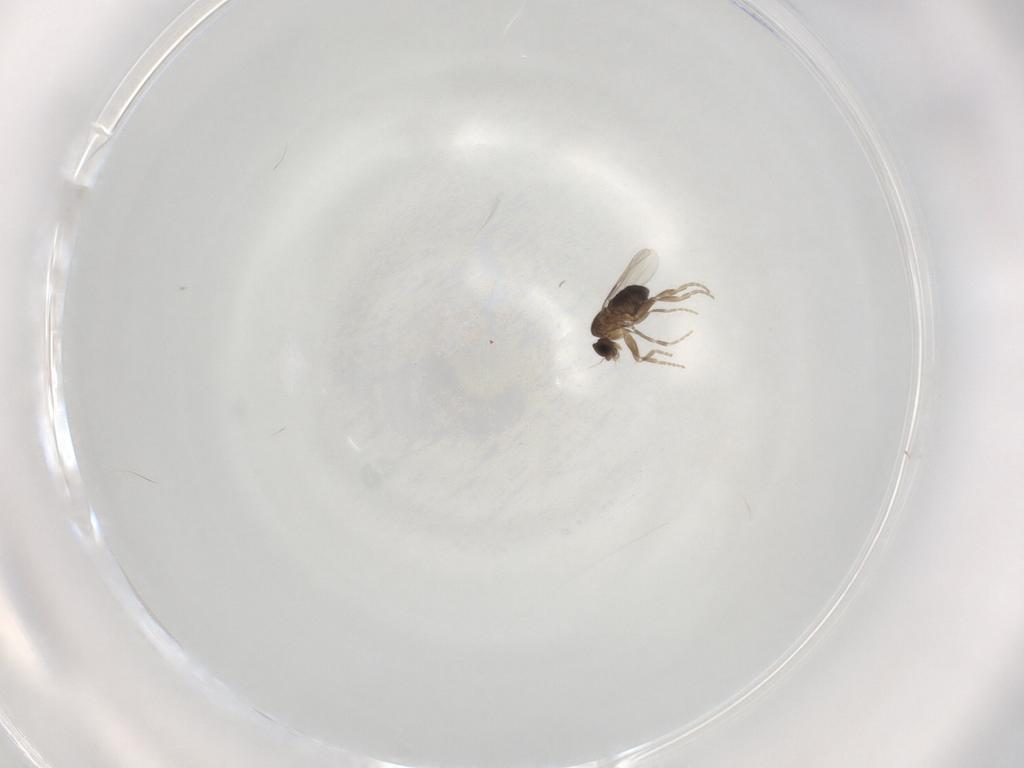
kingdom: Animalia
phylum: Arthropoda
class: Insecta
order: Diptera
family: Phoridae
